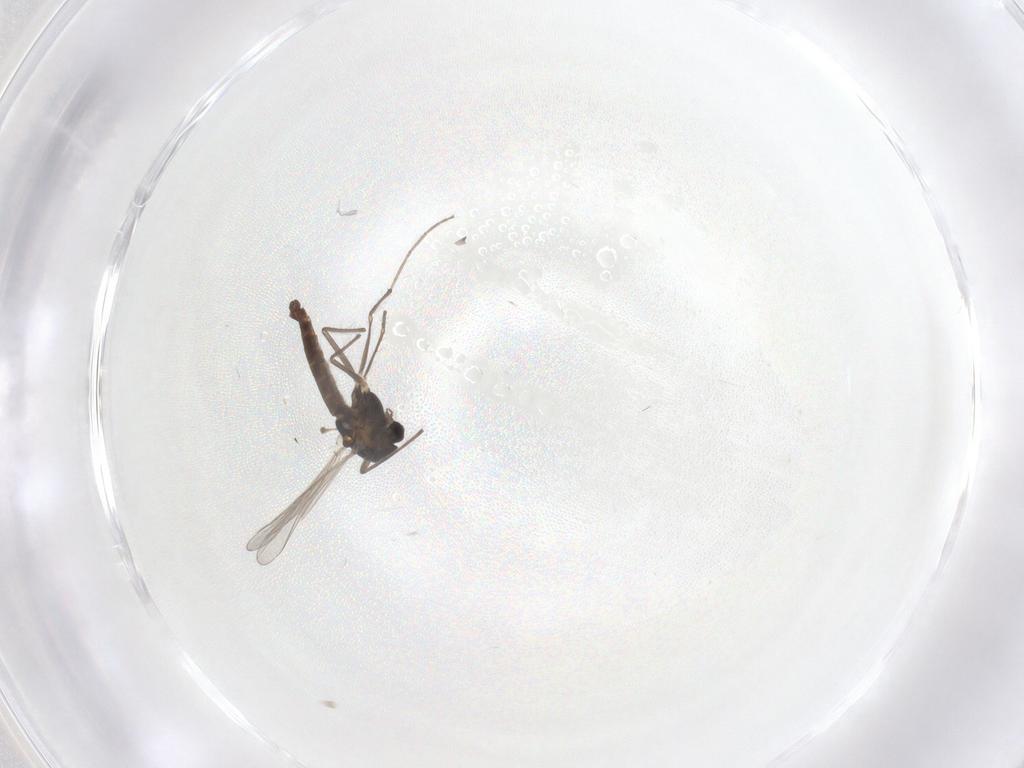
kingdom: Animalia
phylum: Arthropoda
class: Insecta
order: Diptera
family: Chironomidae
